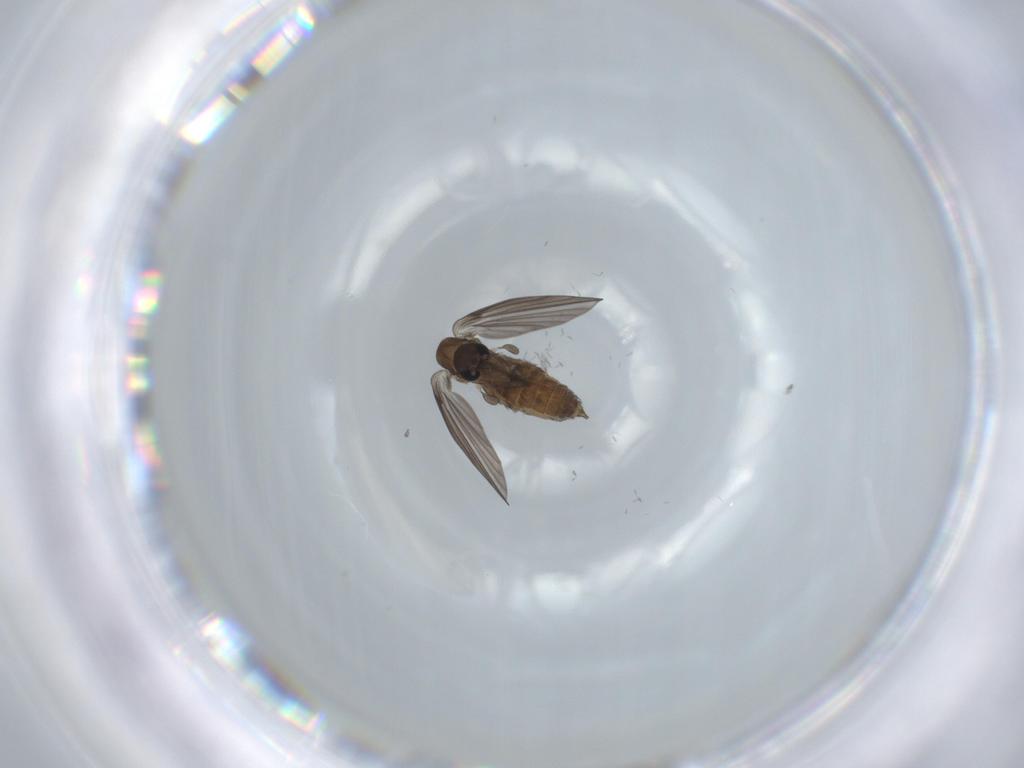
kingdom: Animalia
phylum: Arthropoda
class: Insecta
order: Diptera
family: Psychodidae
